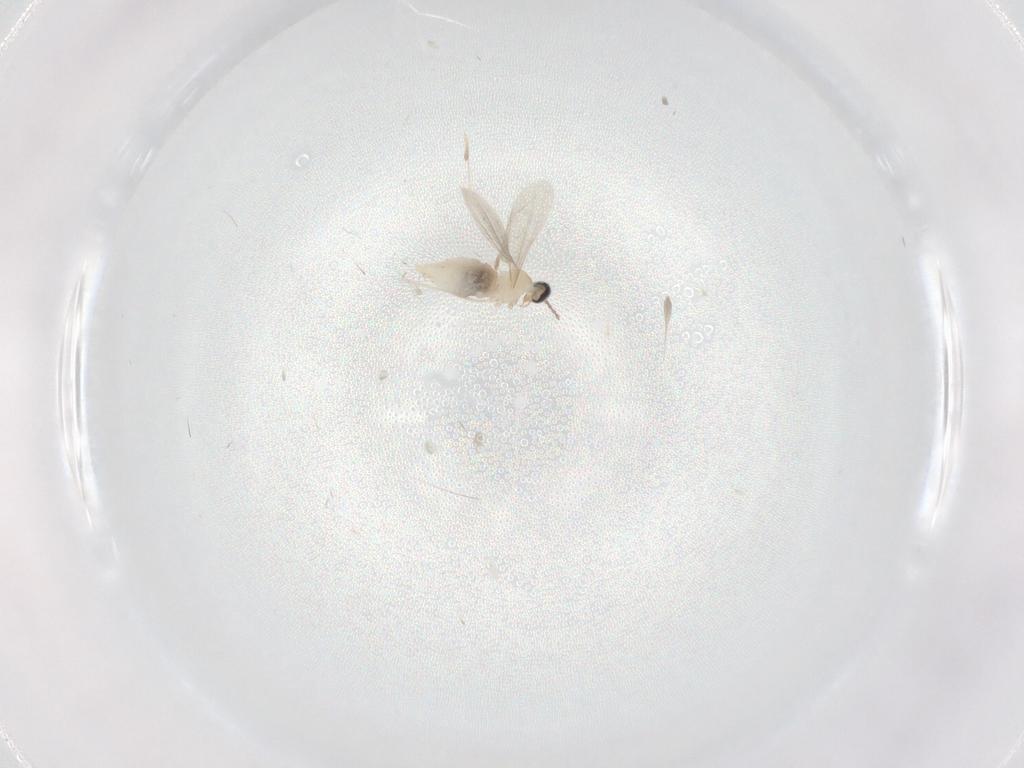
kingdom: Animalia
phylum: Arthropoda
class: Insecta
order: Diptera
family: Cecidomyiidae
